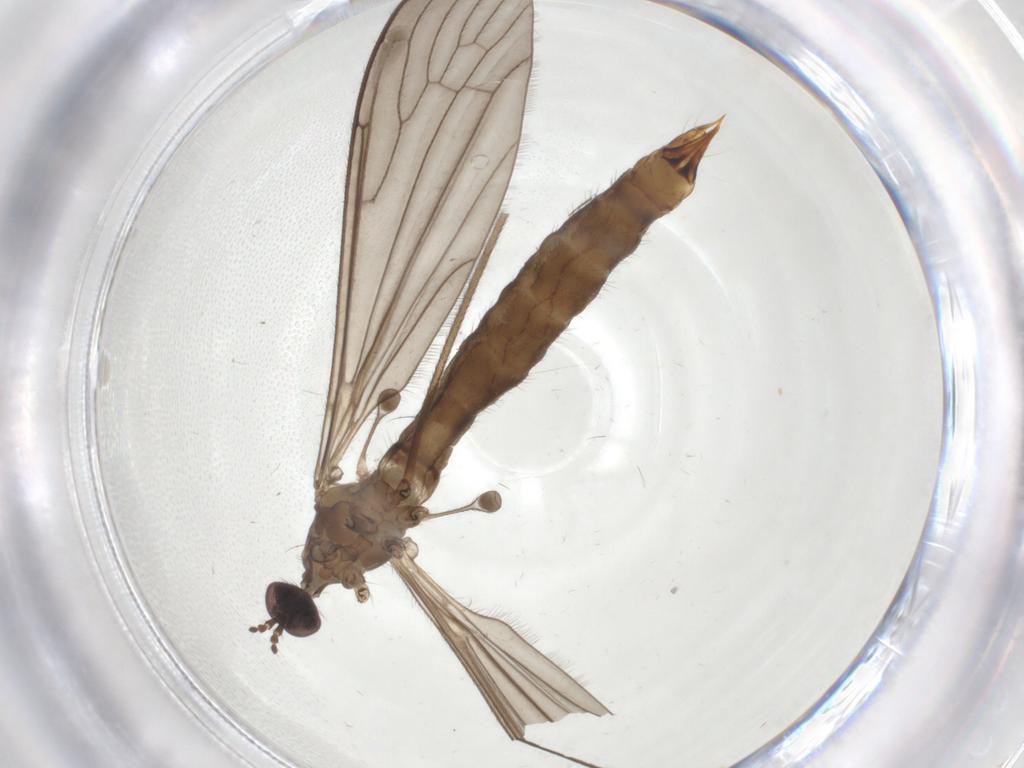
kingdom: Animalia
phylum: Arthropoda
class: Insecta
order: Diptera
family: Limoniidae
